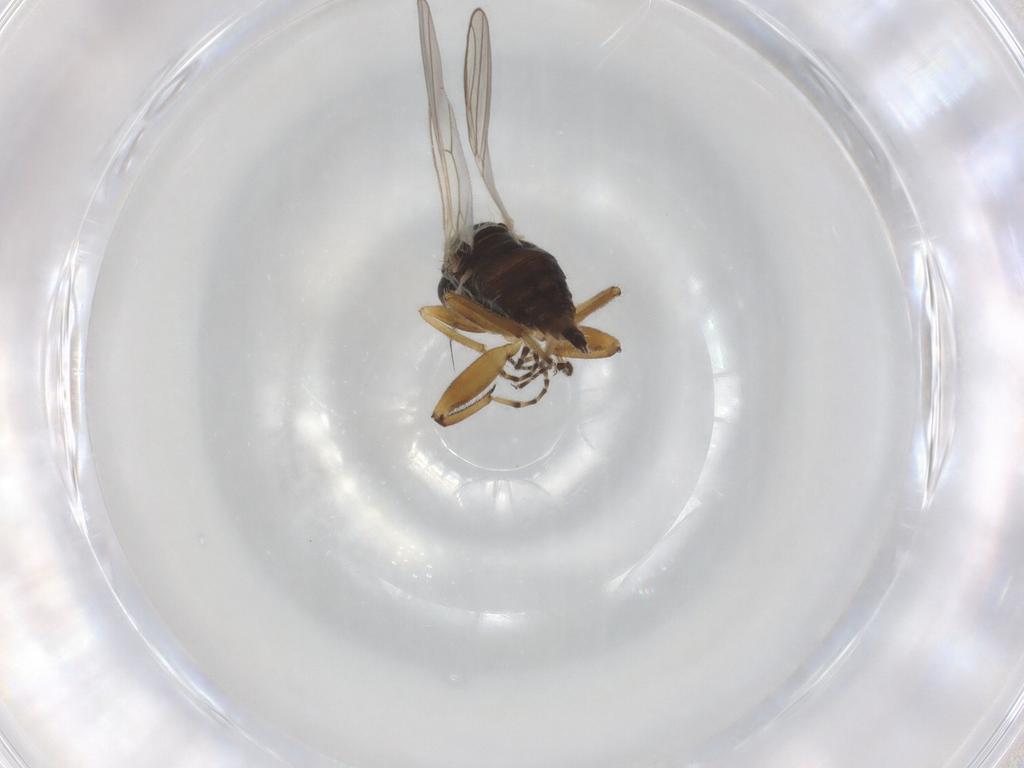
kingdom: Animalia
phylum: Arthropoda
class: Insecta
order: Diptera
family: Hybotidae
